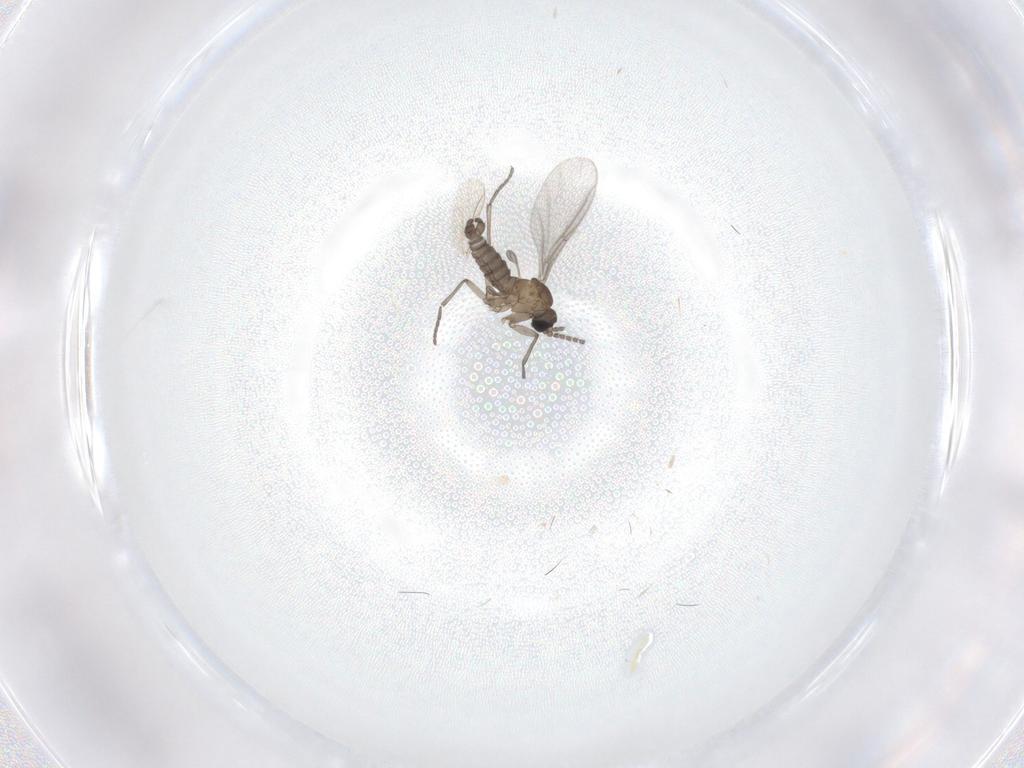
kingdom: Animalia
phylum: Arthropoda
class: Insecta
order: Diptera
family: Sciaridae
